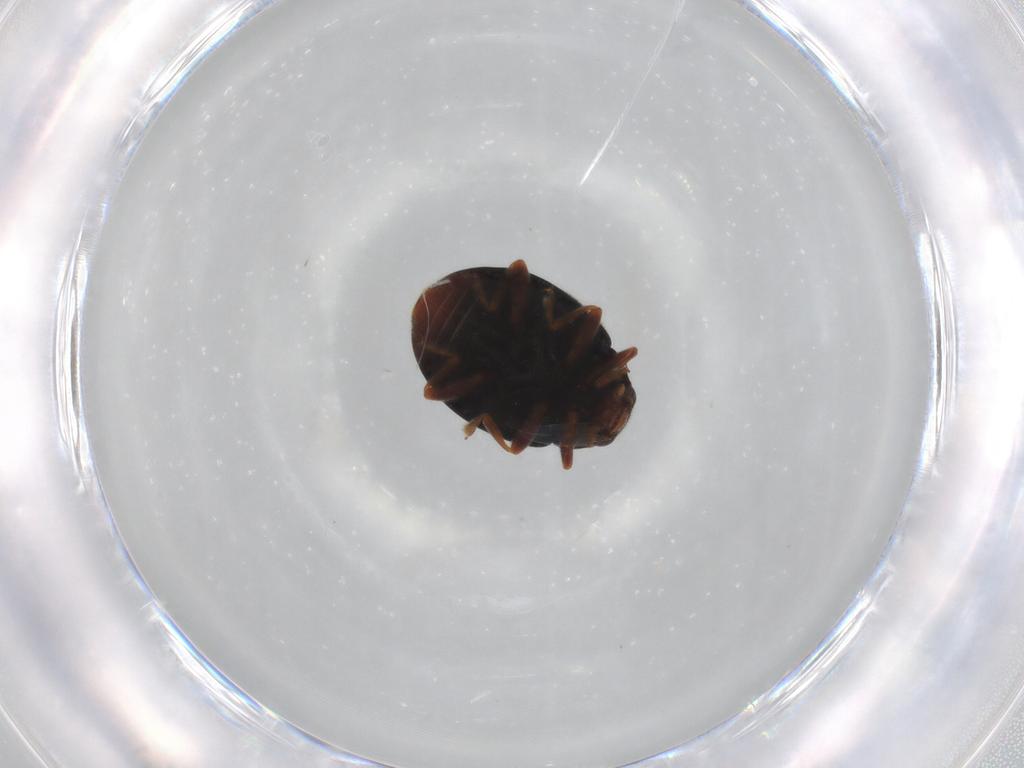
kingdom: Animalia
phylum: Arthropoda
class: Insecta
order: Coleoptera
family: Coccinellidae
